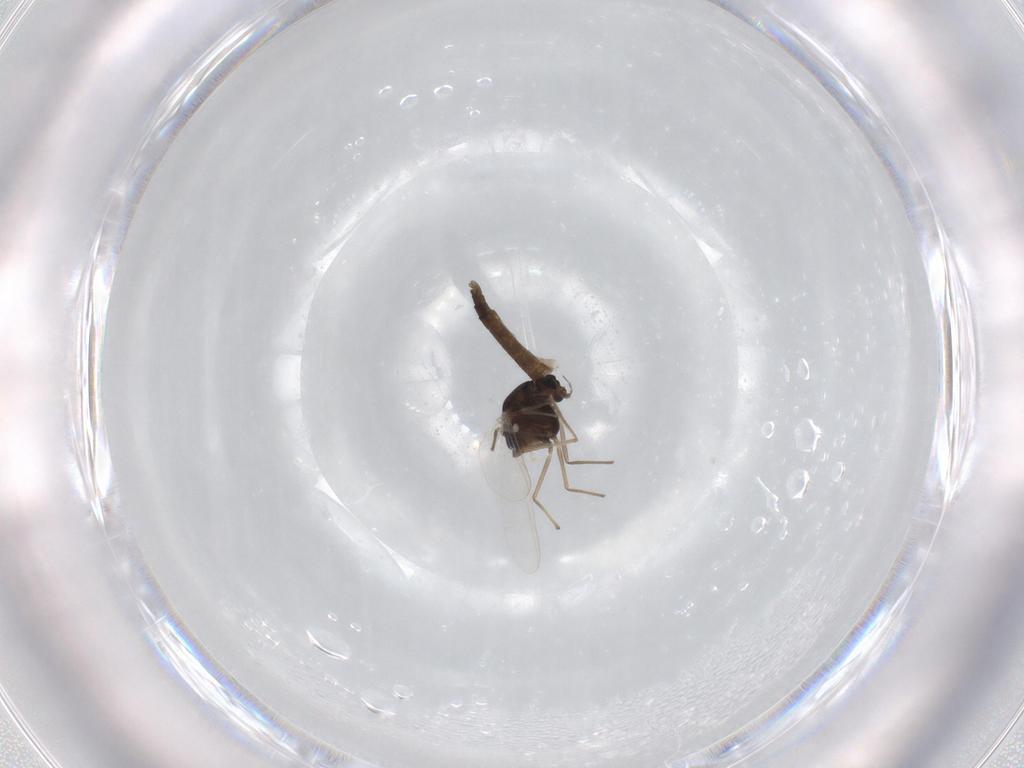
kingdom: Animalia
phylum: Arthropoda
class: Insecta
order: Diptera
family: Chironomidae
